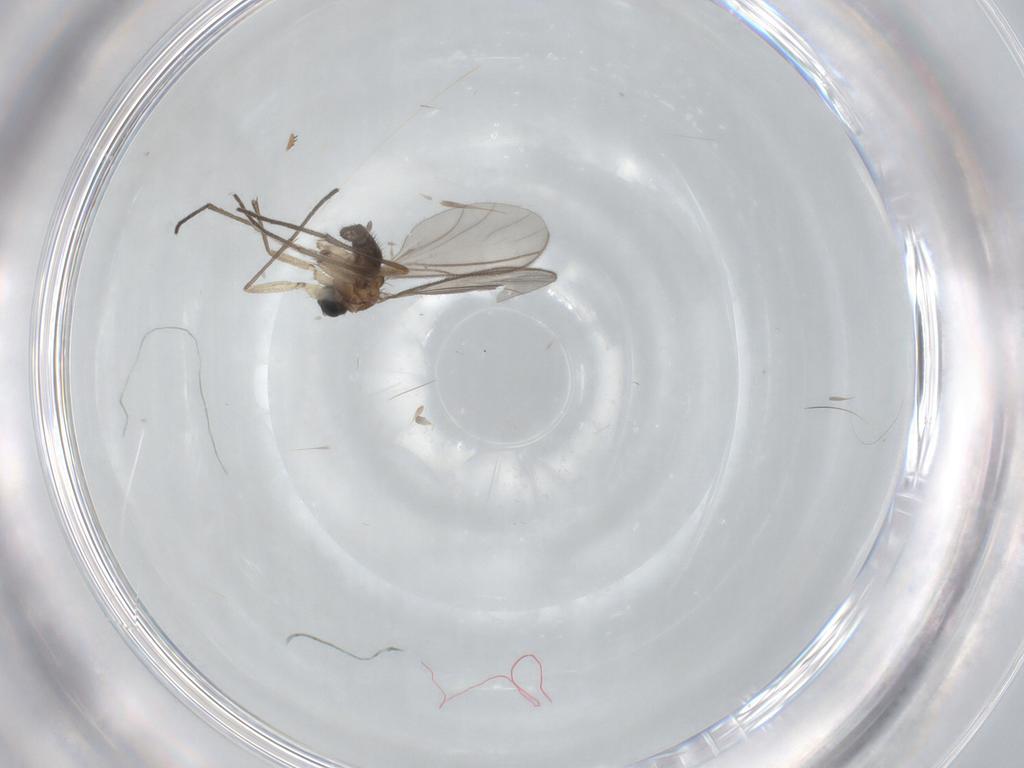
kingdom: Animalia
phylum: Arthropoda
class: Insecta
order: Diptera
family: Sciaridae
